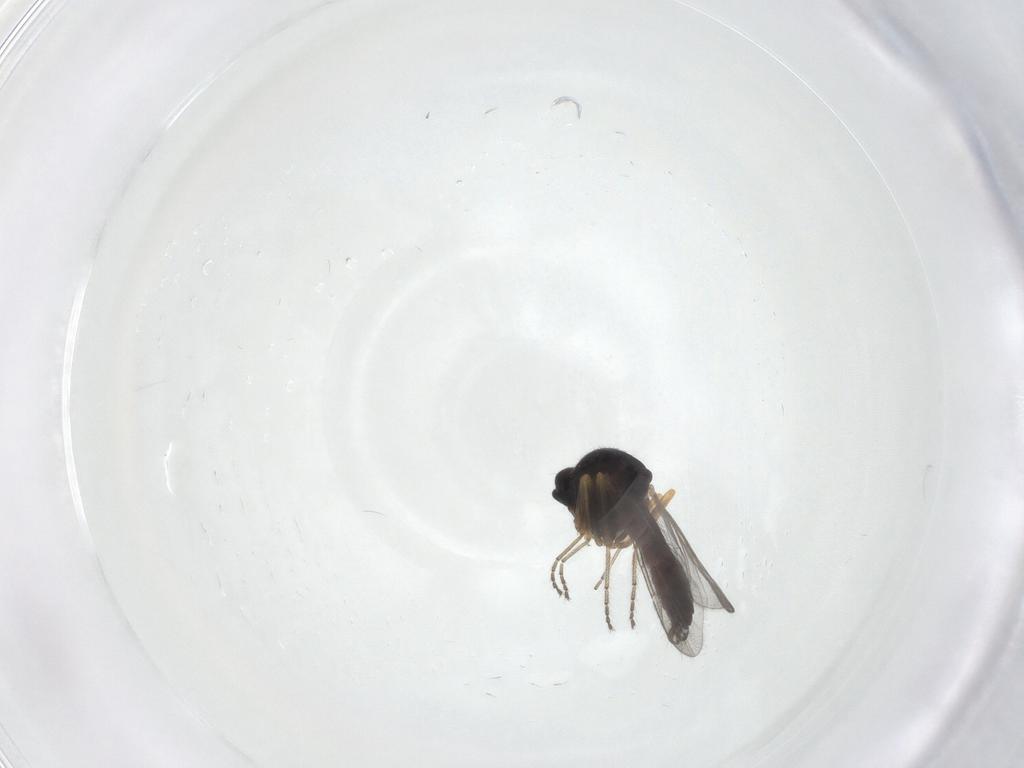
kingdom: Animalia
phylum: Arthropoda
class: Insecta
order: Diptera
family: Ceratopogonidae
